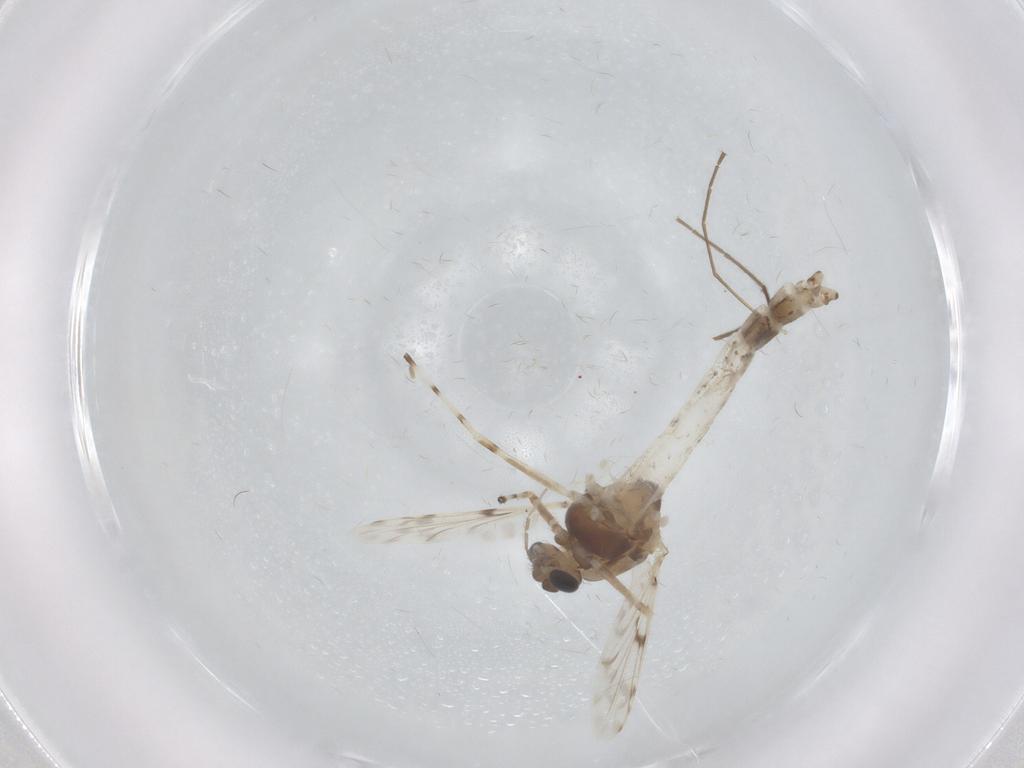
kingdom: Animalia
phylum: Arthropoda
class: Insecta
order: Diptera
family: Chironomidae
